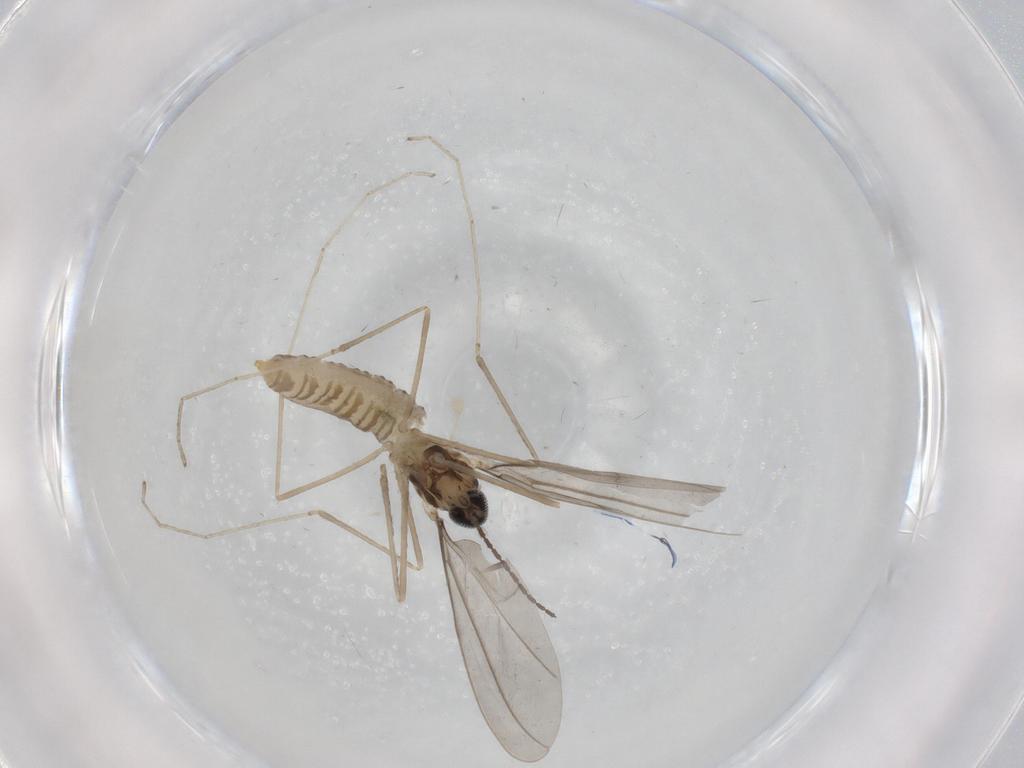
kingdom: Animalia
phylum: Arthropoda
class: Insecta
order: Diptera
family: Cecidomyiidae
